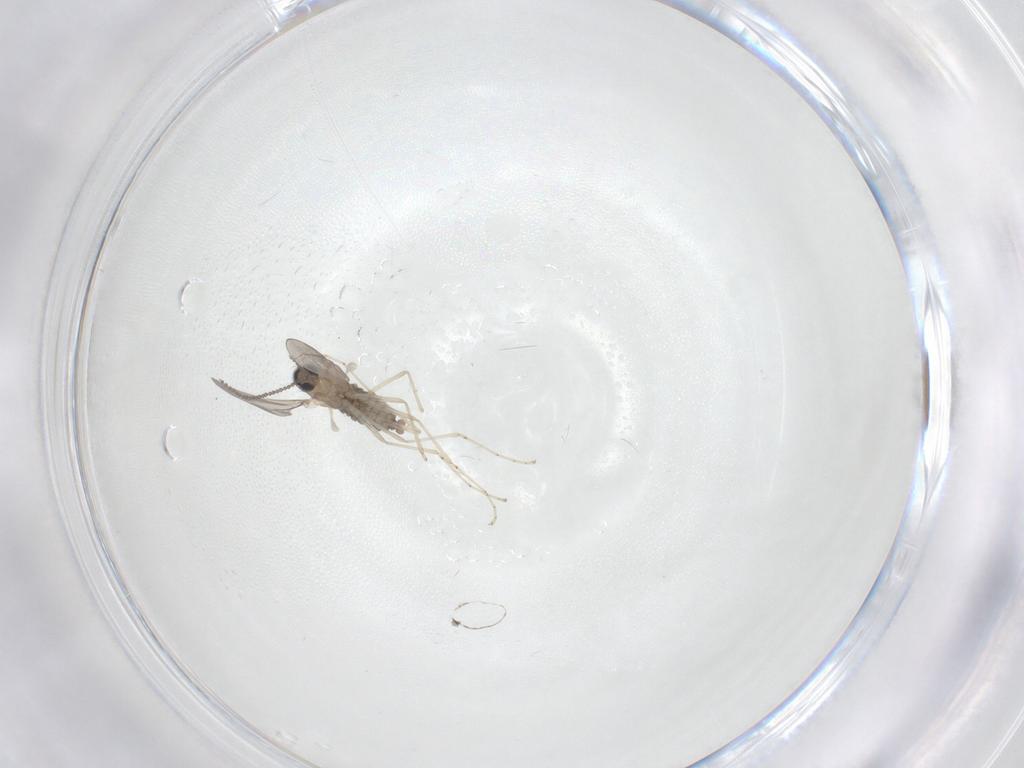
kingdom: Animalia
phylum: Arthropoda
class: Insecta
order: Diptera
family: Psychodidae
